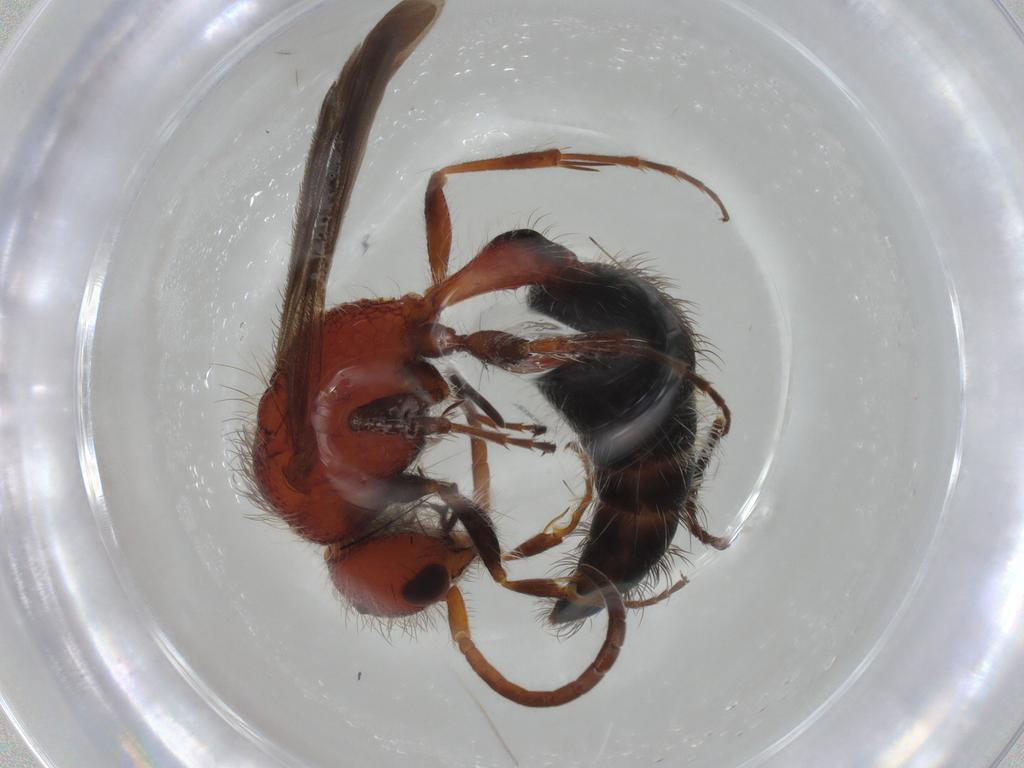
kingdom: Animalia
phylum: Arthropoda
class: Insecta
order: Hymenoptera
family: Mutillidae
